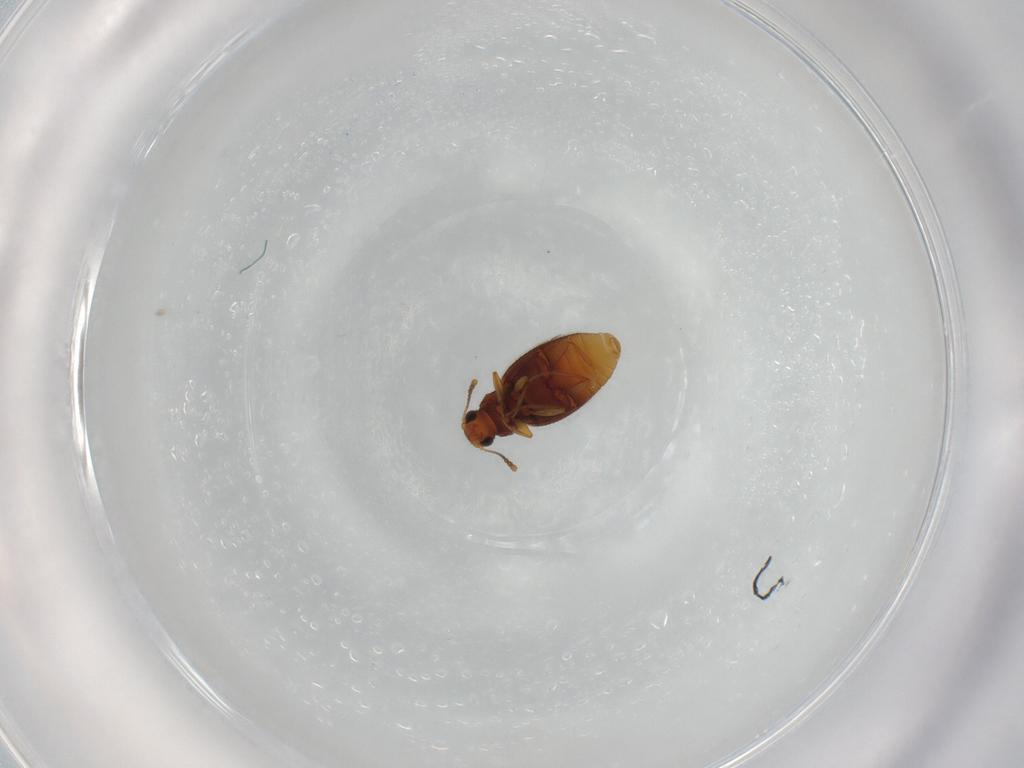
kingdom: Animalia
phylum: Arthropoda
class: Insecta
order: Coleoptera
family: Latridiidae
